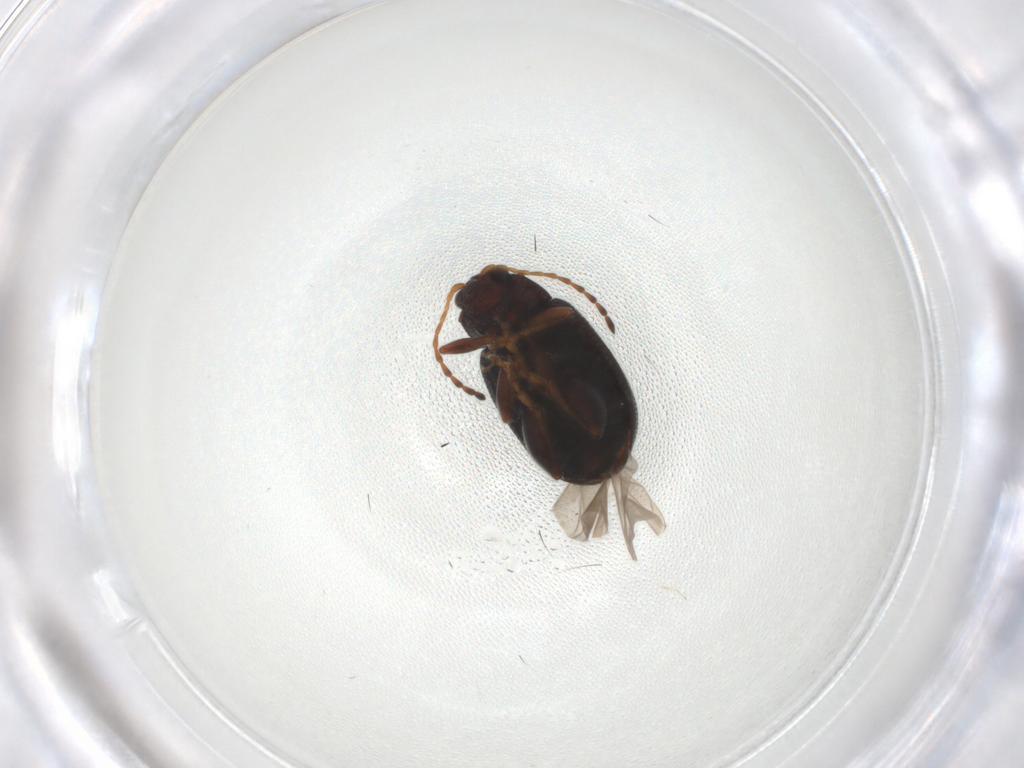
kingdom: Animalia
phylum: Arthropoda
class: Insecta
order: Coleoptera
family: Chrysomelidae
